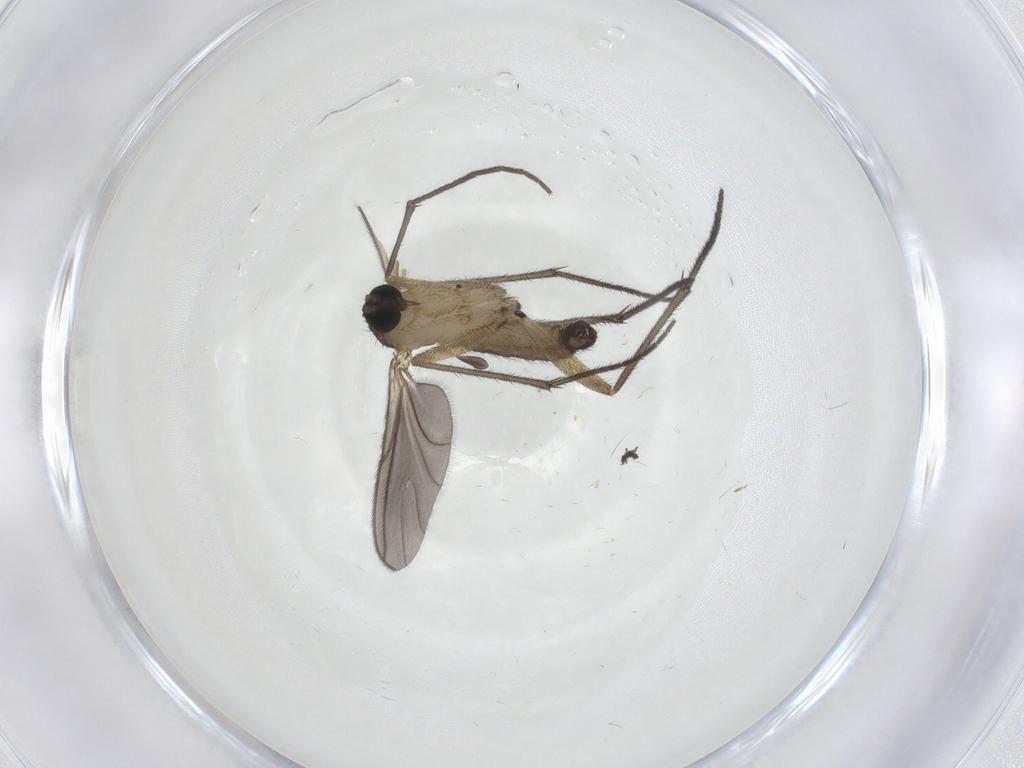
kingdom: Animalia
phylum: Arthropoda
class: Insecta
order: Diptera
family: Sciaridae
